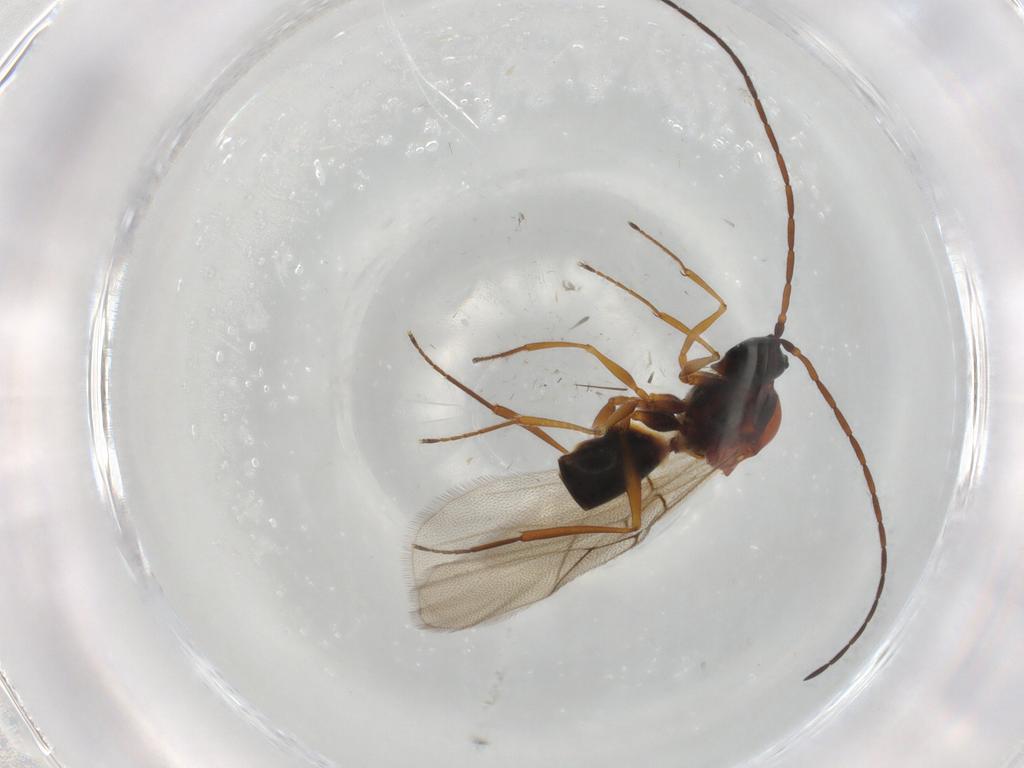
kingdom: Animalia
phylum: Arthropoda
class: Insecta
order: Hymenoptera
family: Figitidae
